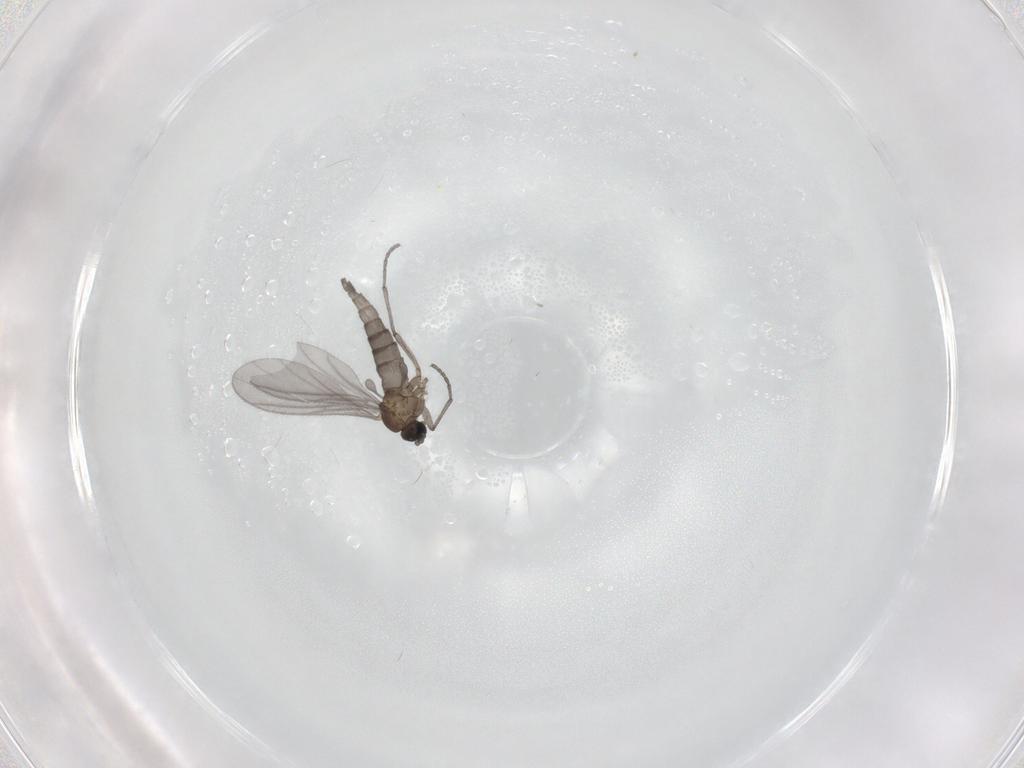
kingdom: Animalia
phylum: Arthropoda
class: Insecta
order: Diptera
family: Sciaridae
